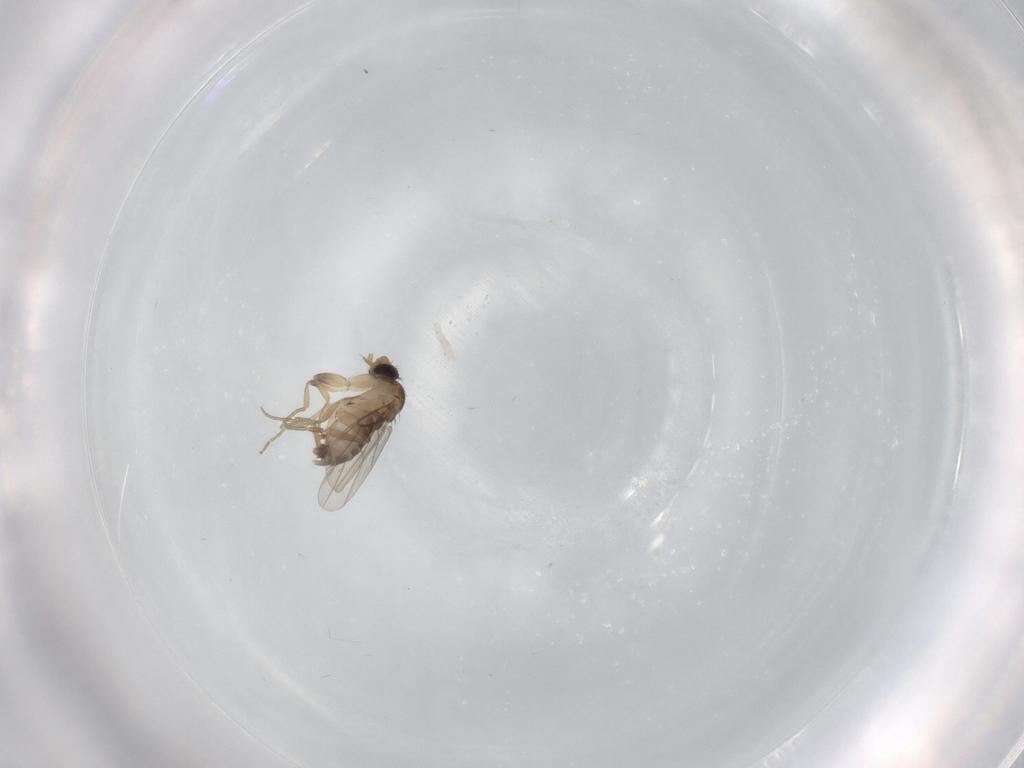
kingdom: Animalia
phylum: Arthropoda
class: Insecta
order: Diptera
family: Phoridae
